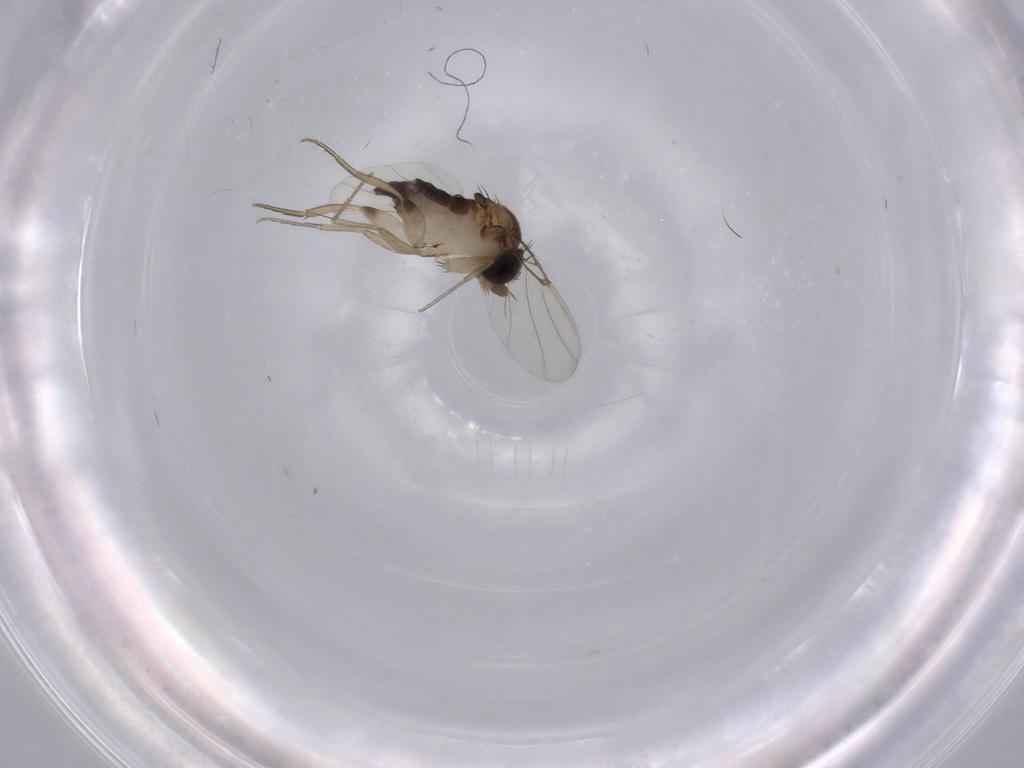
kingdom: Animalia
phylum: Arthropoda
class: Insecta
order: Diptera
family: Phoridae
